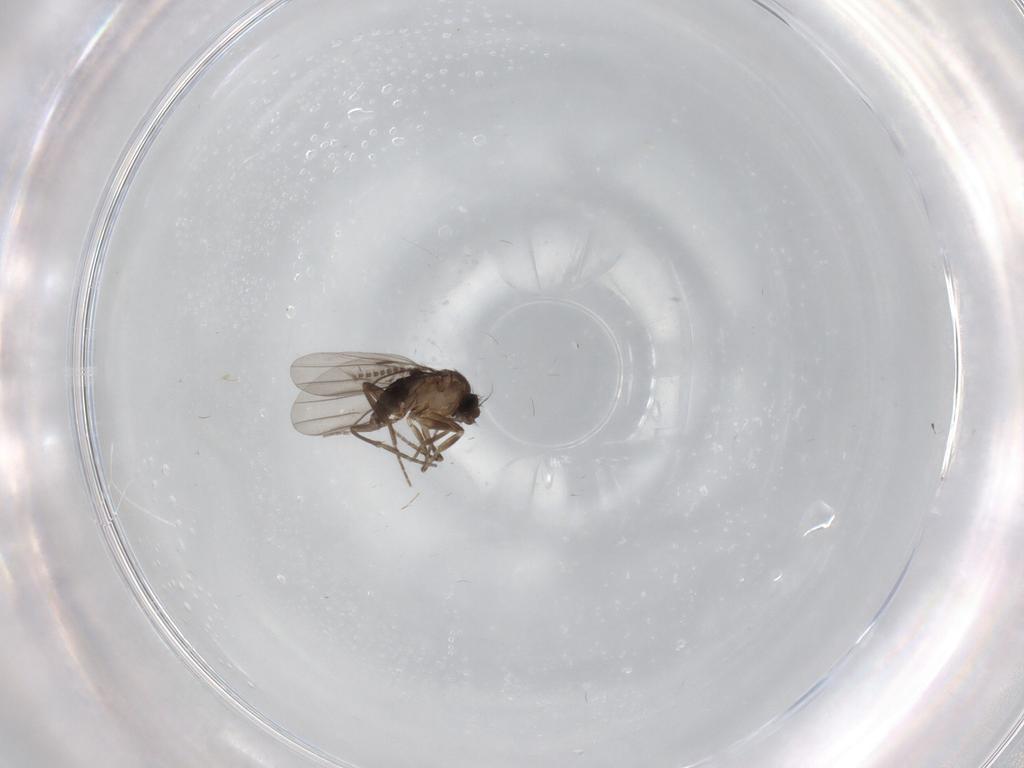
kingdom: Animalia
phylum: Arthropoda
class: Insecta
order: Diptera
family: Chironomidae
